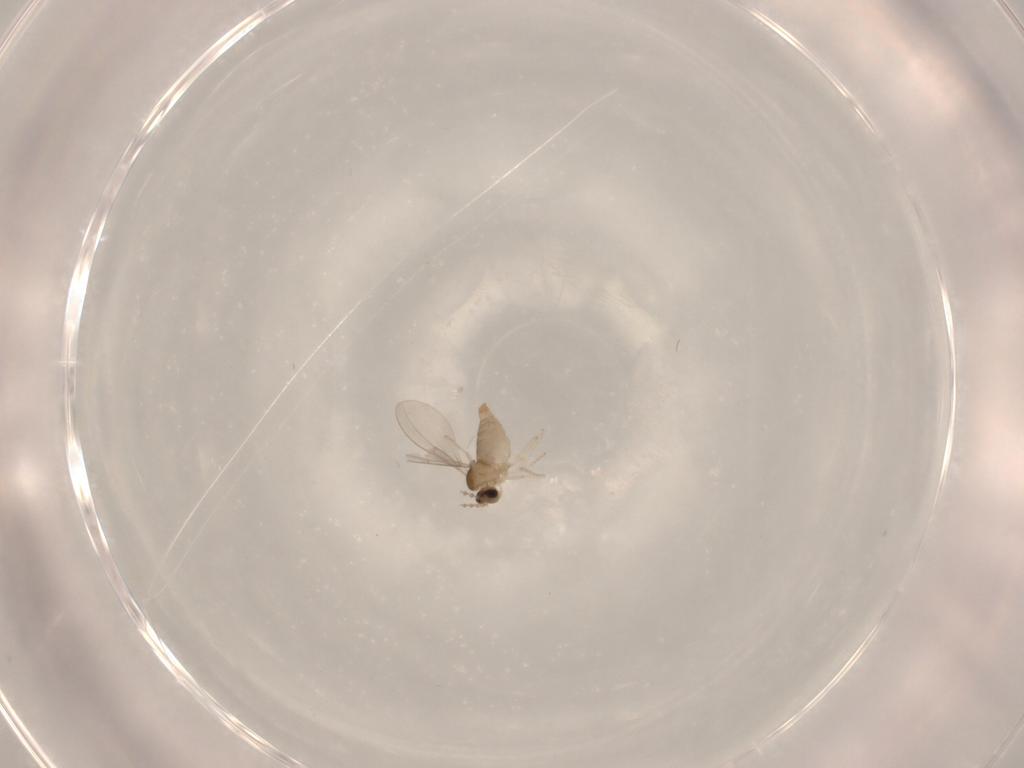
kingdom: Animalia
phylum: Arthropoda
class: Insecta
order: Diptera
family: Cecidomyiidae
